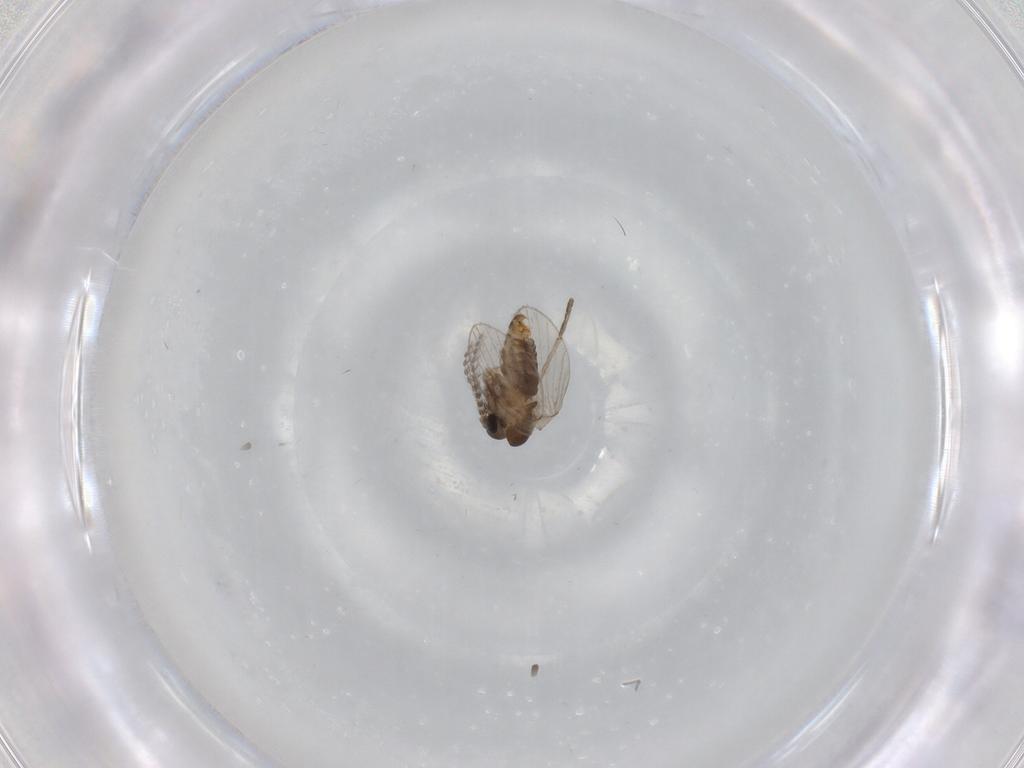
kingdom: Animalia
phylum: Arthropoda
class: Insecta
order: Diptera
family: Cecidomyiidae
